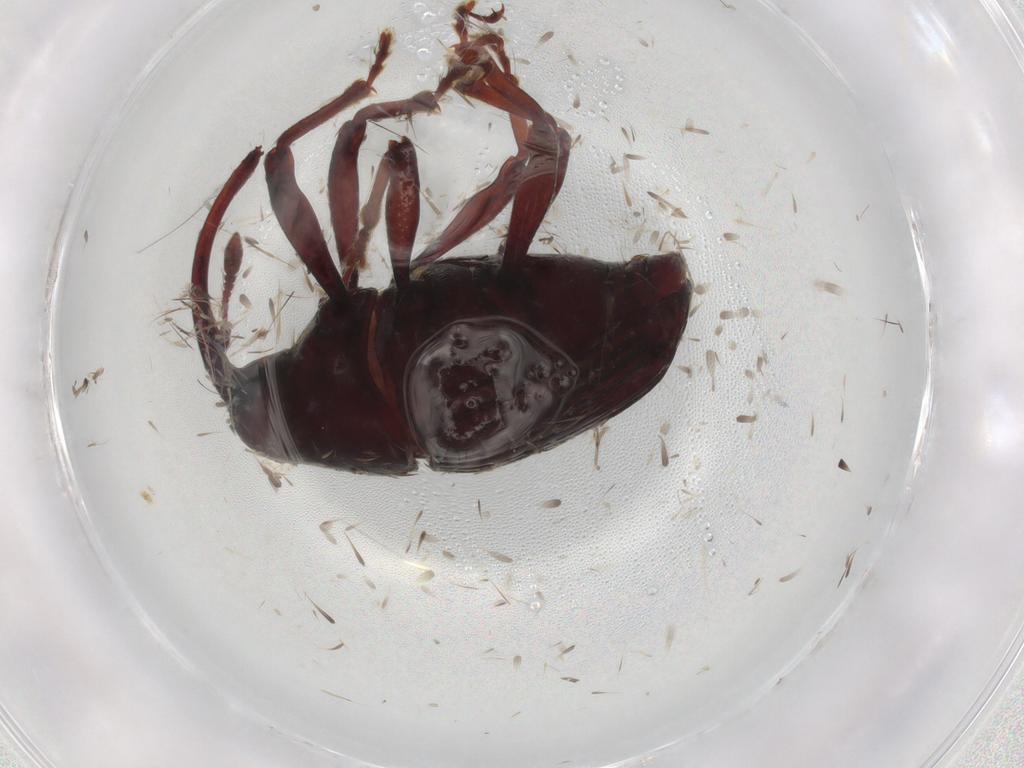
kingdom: Animalia
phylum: Arthropoda
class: Insecta
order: Coleoptera
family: Curculionidae
